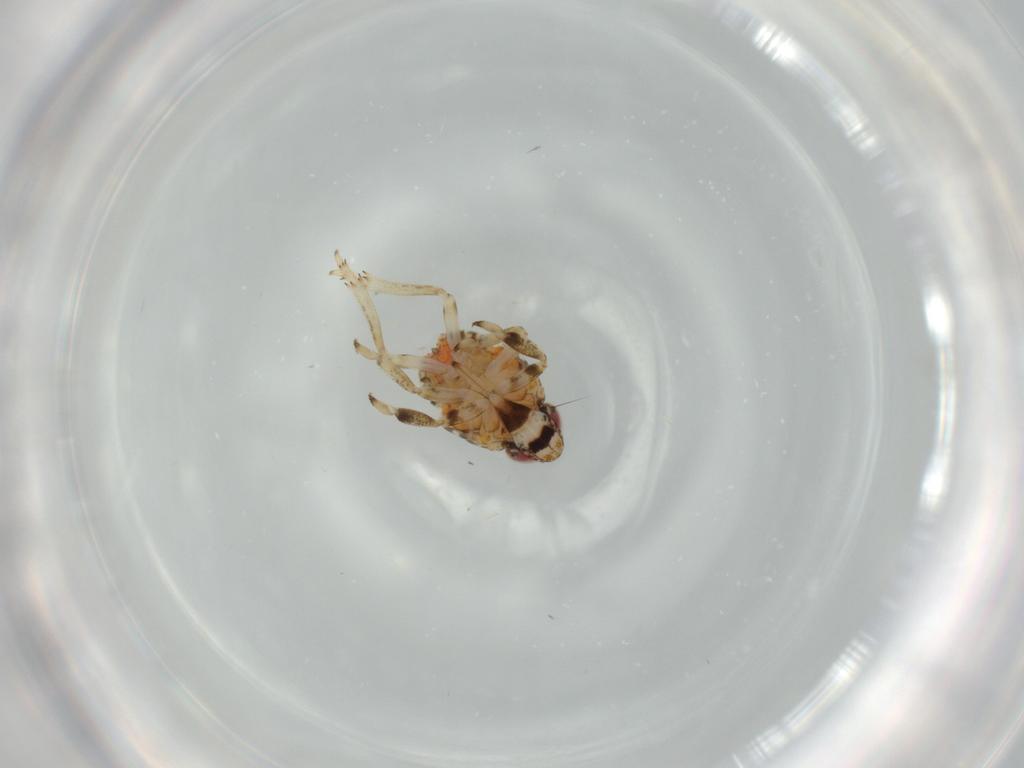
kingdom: Animalia
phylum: Arthropoda
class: Insecta
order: Hemiptera
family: Issidae
